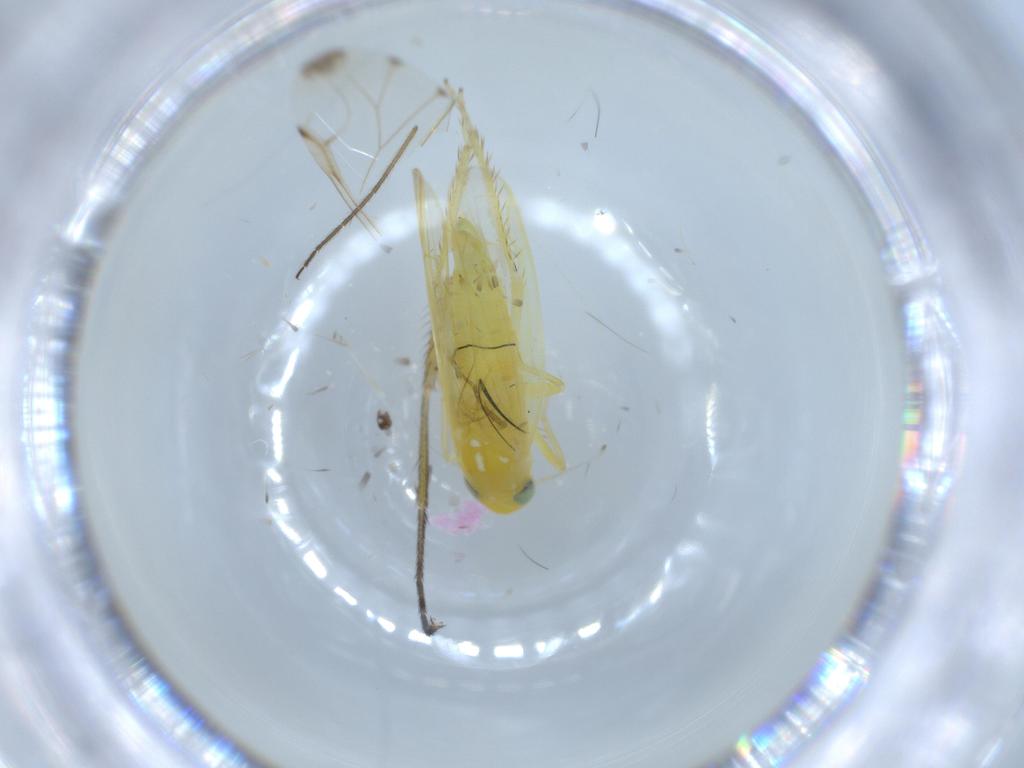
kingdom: Animalia
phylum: Arthropoda
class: Insecta
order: Hemiptera
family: Cicadellidae
